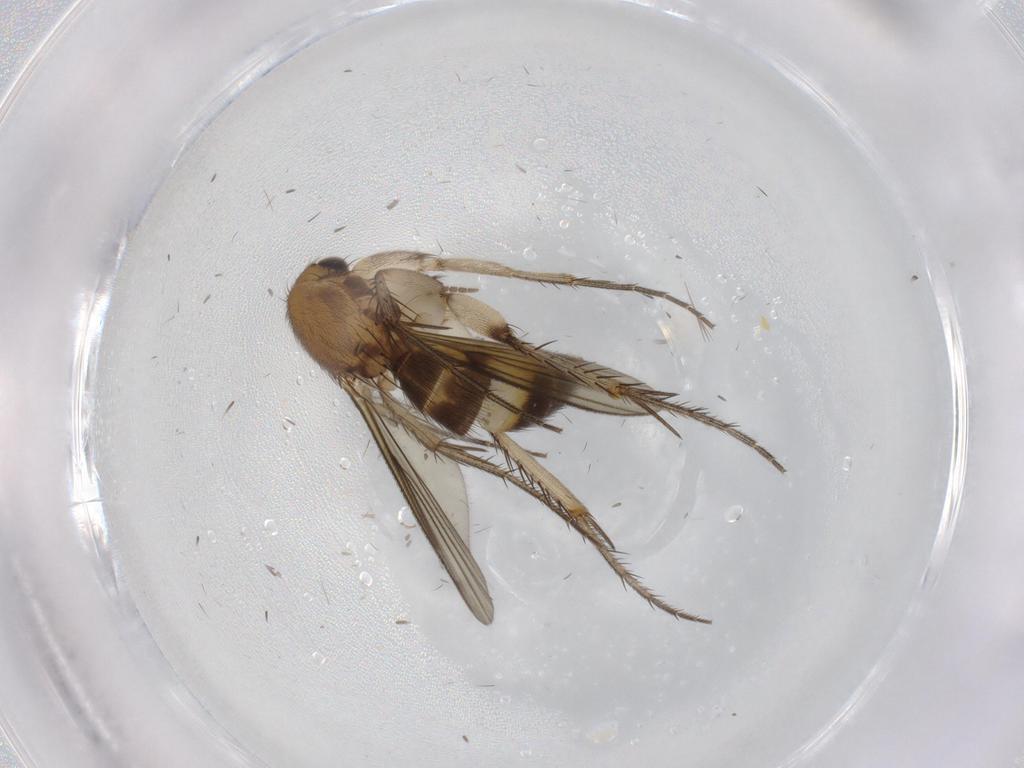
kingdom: Animalia
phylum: Arthropoda
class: Insecta
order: Diptera
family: Mycetophilidae
